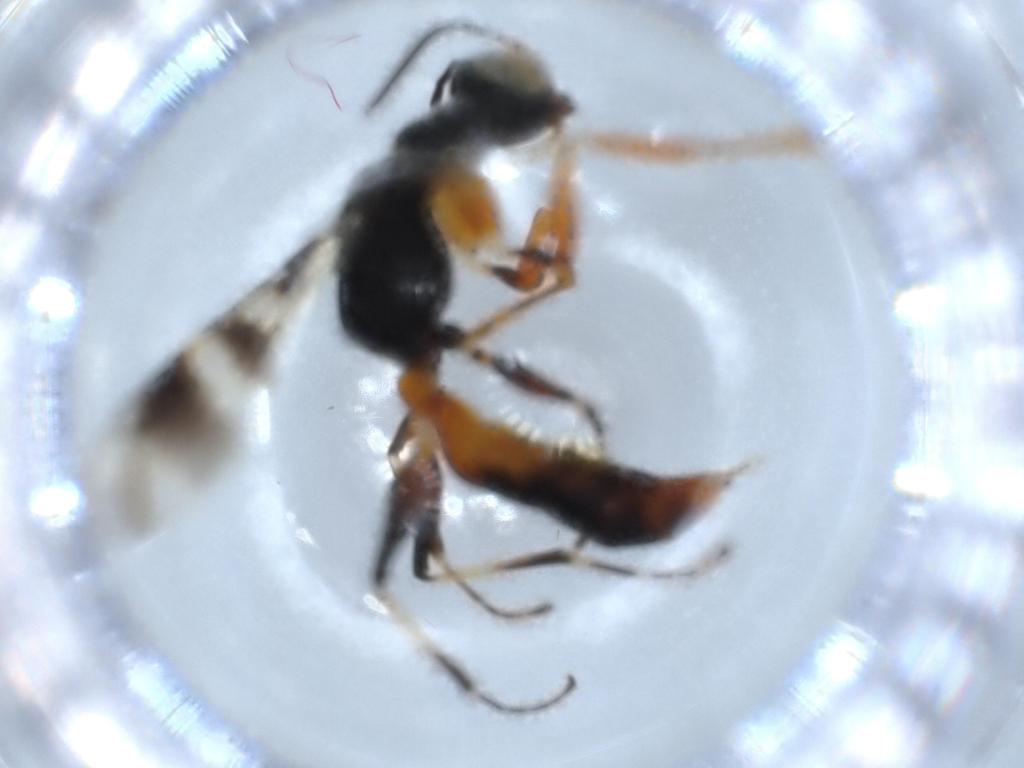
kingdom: Animalia
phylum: Arthropoda
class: Insecta
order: Hymenoptera
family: Dryinidae
